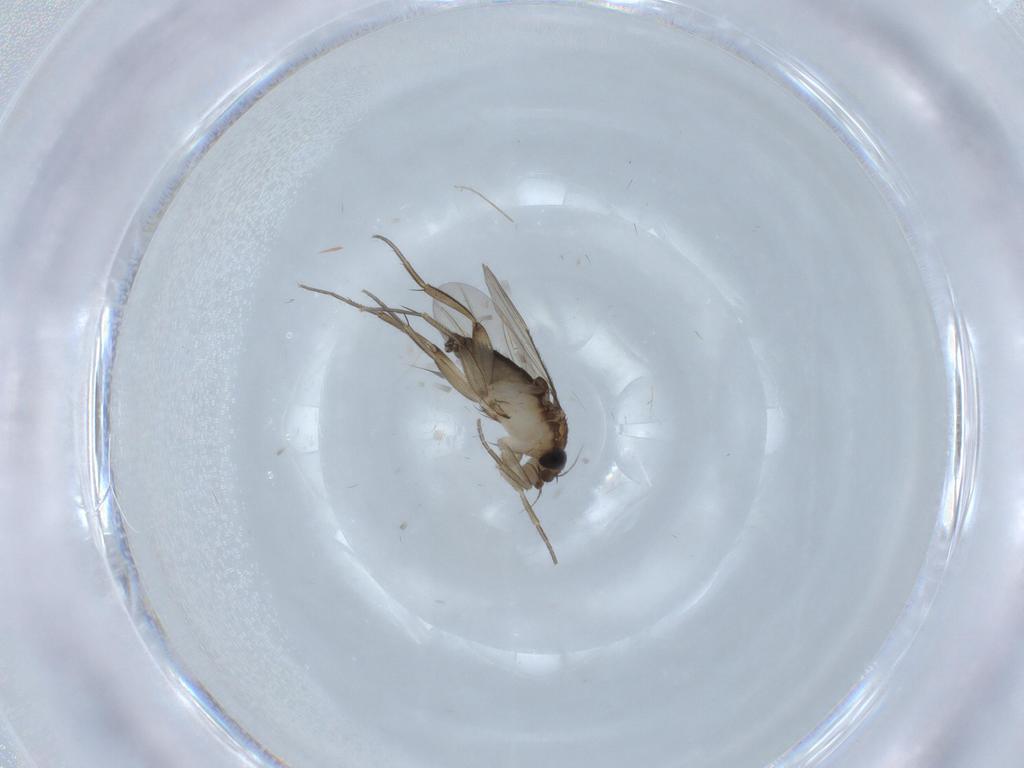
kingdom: Animalia
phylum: Arthropoda
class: Insecta
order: Diptera
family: Phoridae
